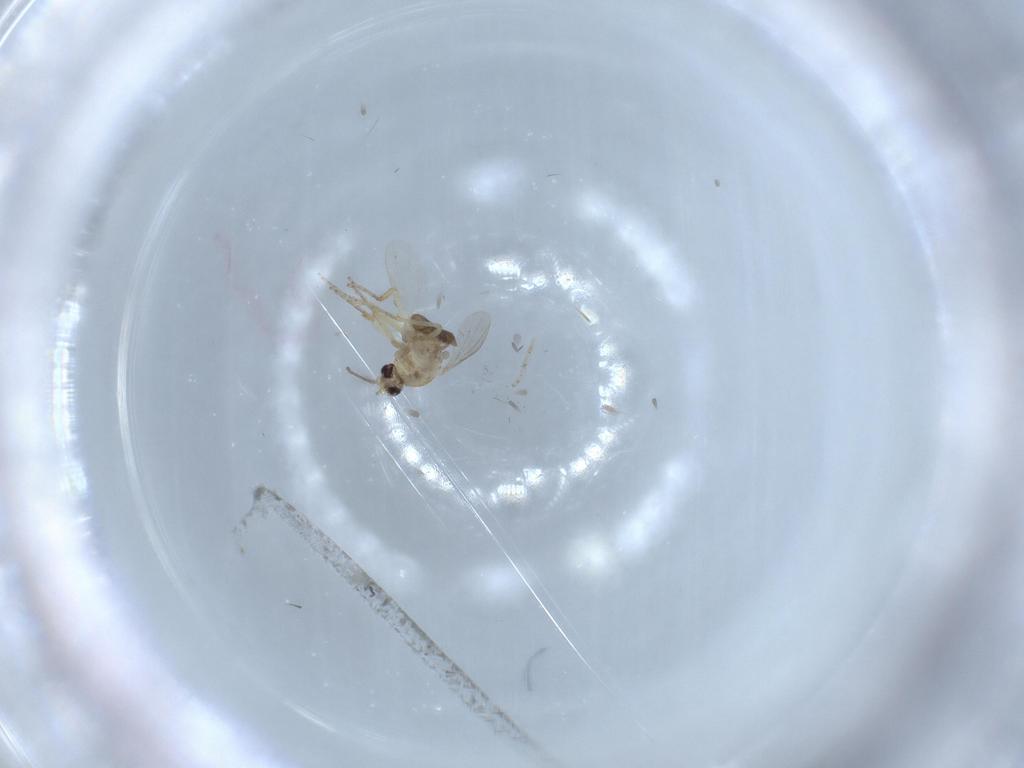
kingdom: Animalia
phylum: Arthropoda
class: Insecta
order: Diptera
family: Ceratopogonidae
